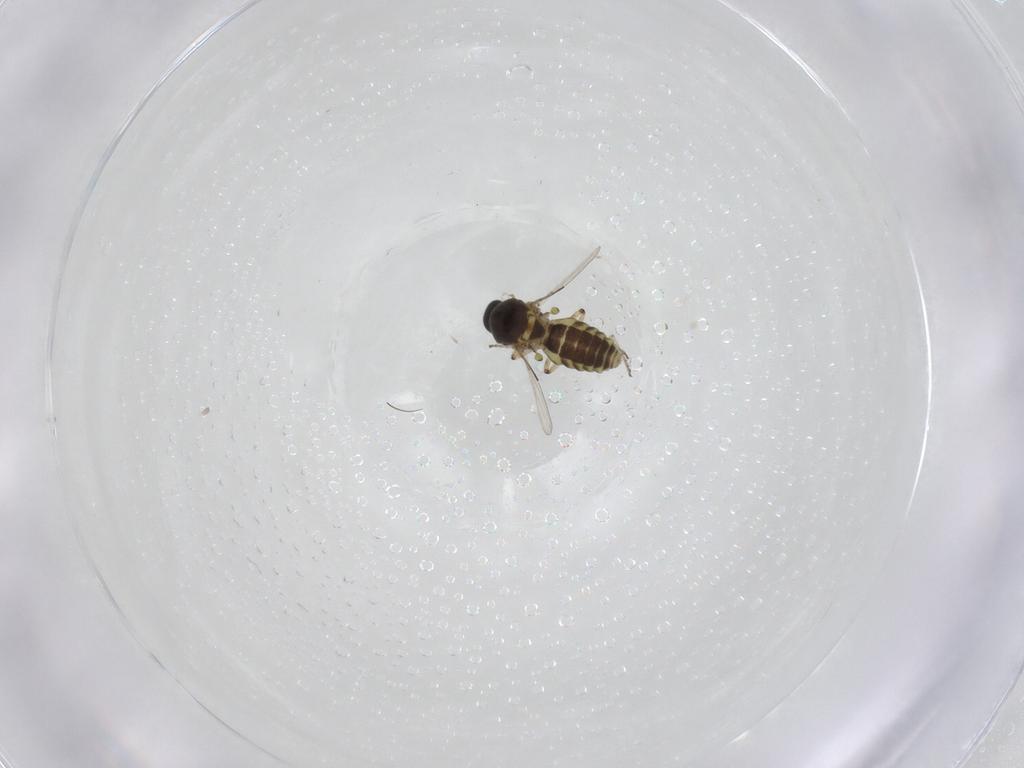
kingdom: Animalia
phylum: Arthropoda
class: Insecta
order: Diptera
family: Ceratopogonidae
